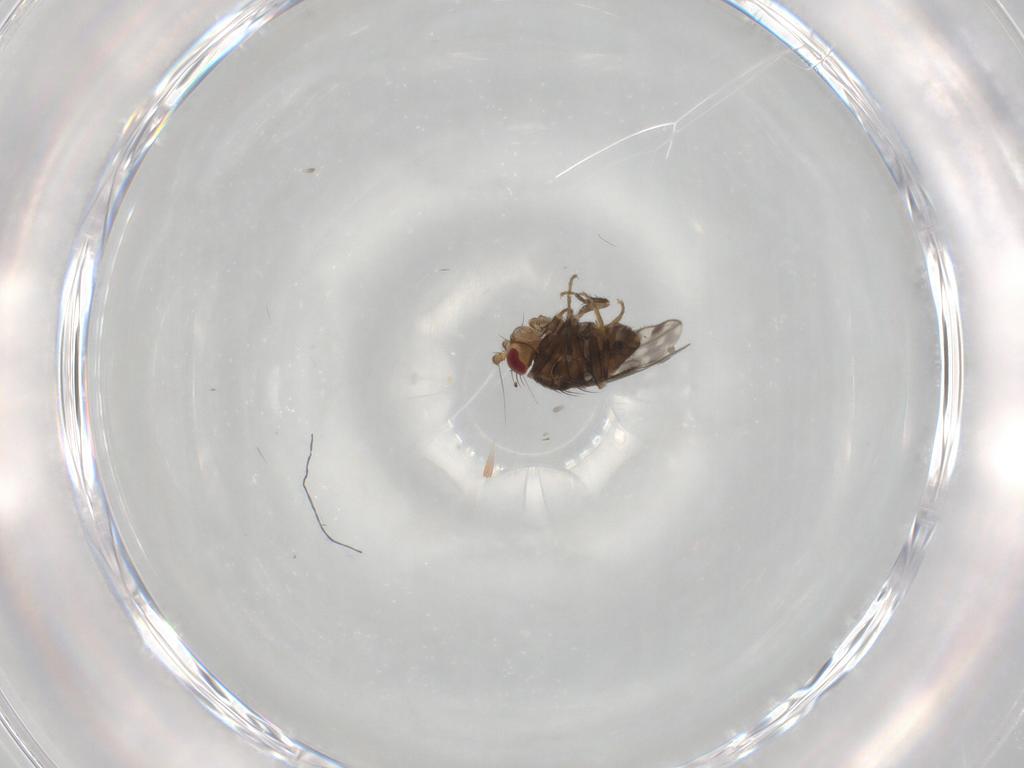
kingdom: Animalia
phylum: Arthropoda
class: Insecta
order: Diptera
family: Sphaeroceridae
